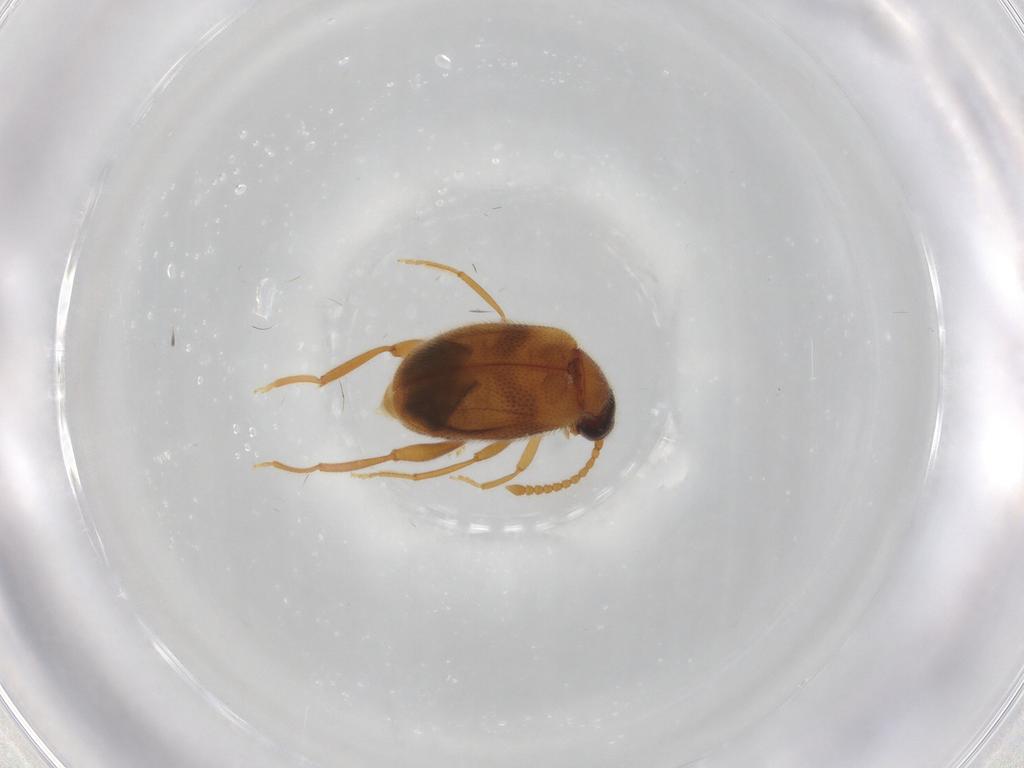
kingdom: Animalia
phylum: Arthropoda
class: Insecta
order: Coleoptera
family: Aderidae
